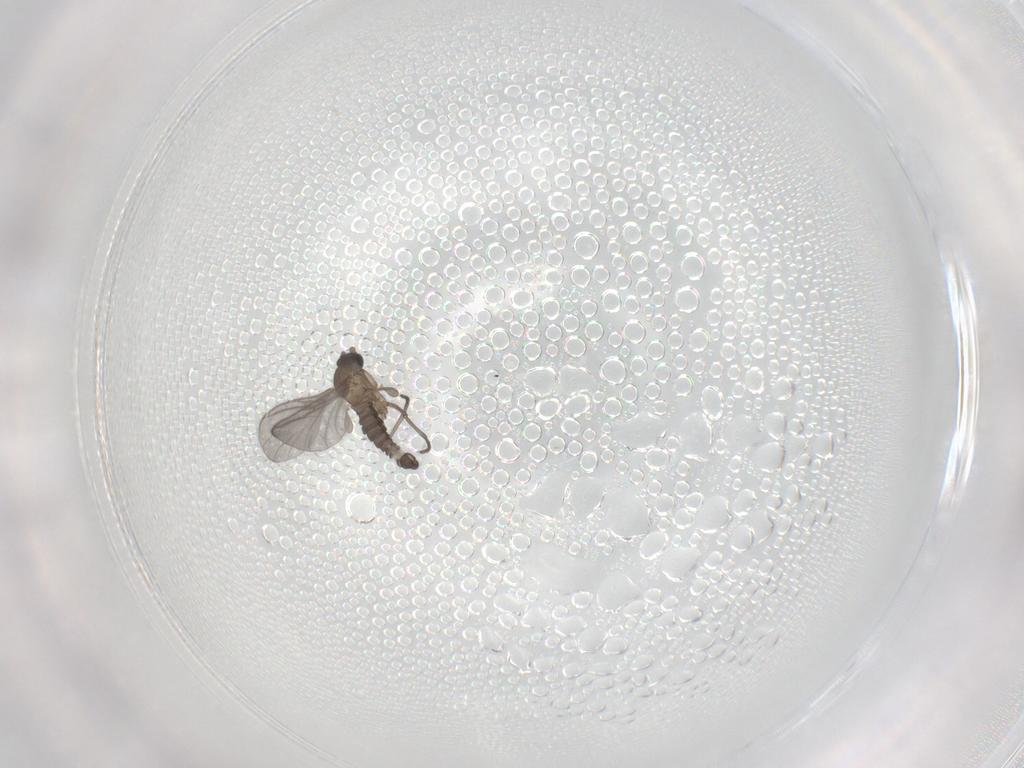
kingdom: Animalia
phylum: Arthropoda
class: Insecta
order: Diptera
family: Sciaridae
